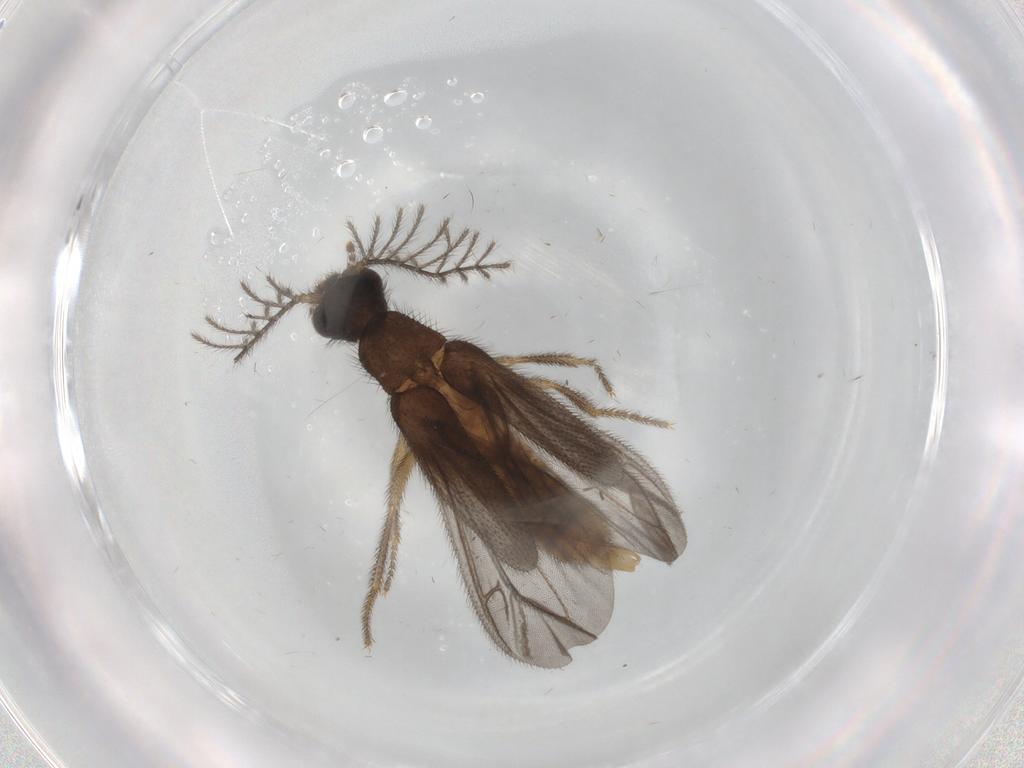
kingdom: Animalia
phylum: Arthropoda
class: Insecta
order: Coleoptera
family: Phengodidae
